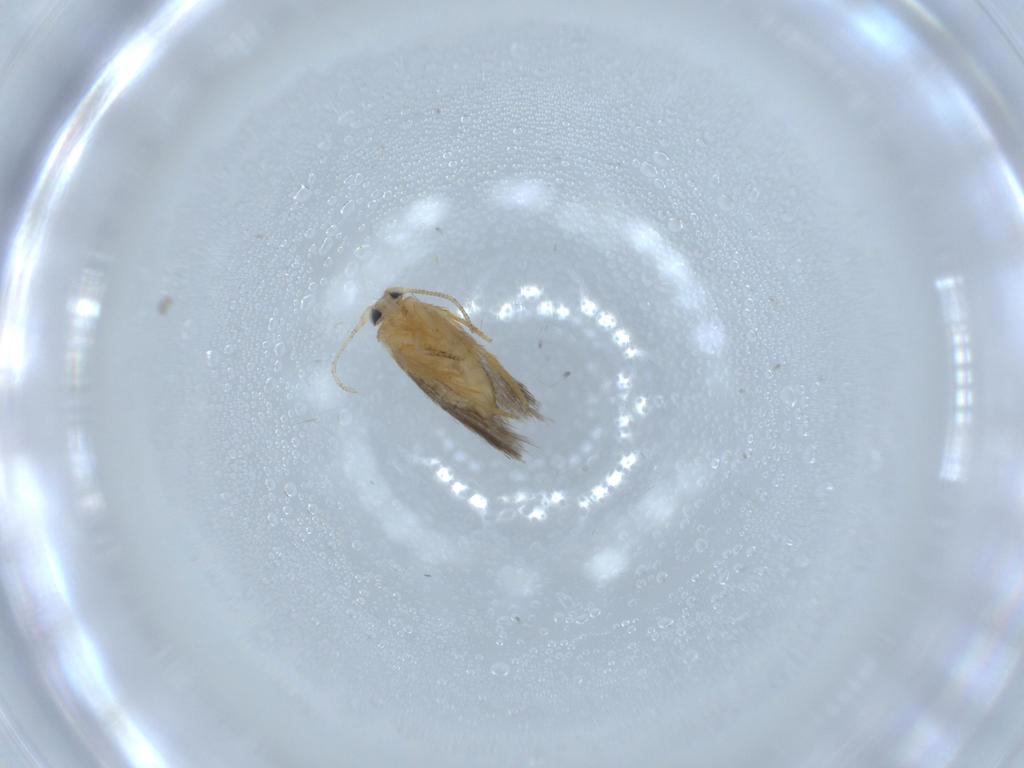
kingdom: Animalia
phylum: Arthropoda
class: Insecta
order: Lepidoptera
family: Nepticulidae
